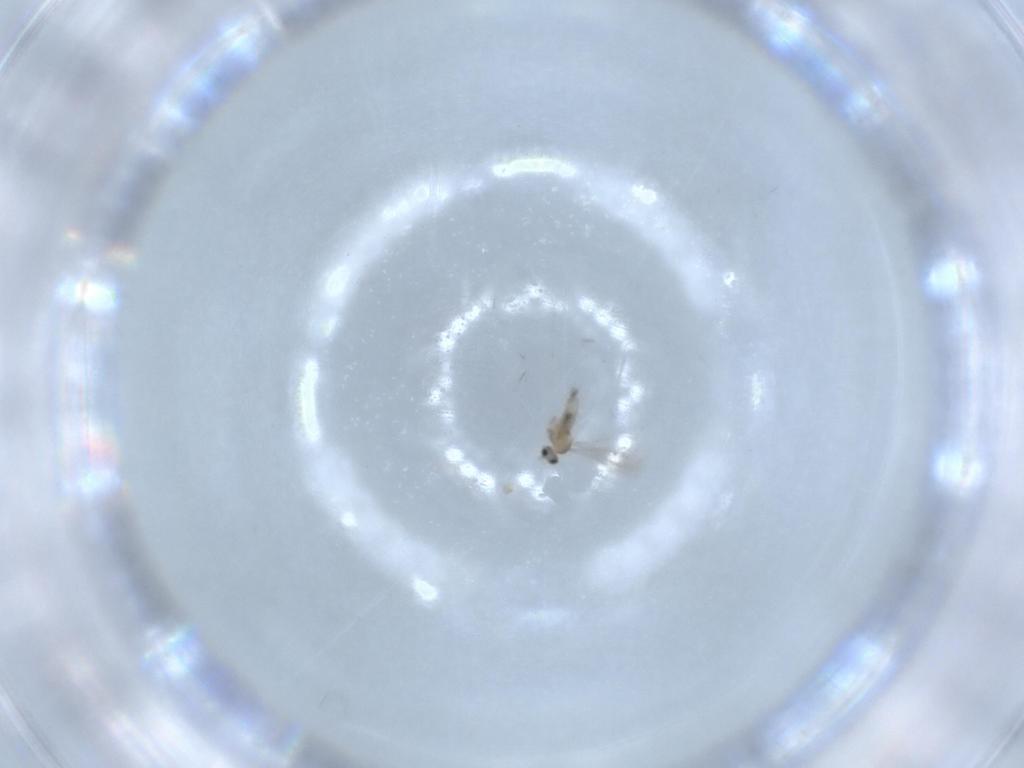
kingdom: Animalia
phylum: Arthropoda
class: Insecta
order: Diptera
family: Cecidomyiidae
